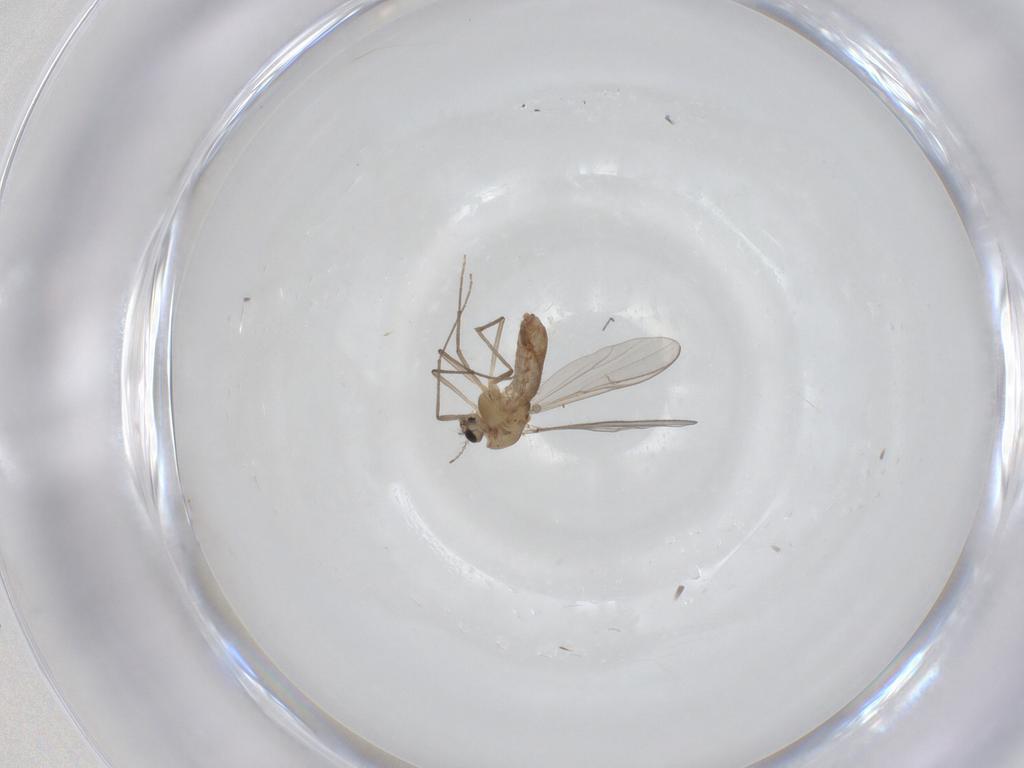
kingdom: Animalia
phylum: Arthropoda
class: Insecta
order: Diptera
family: Chironomidae
